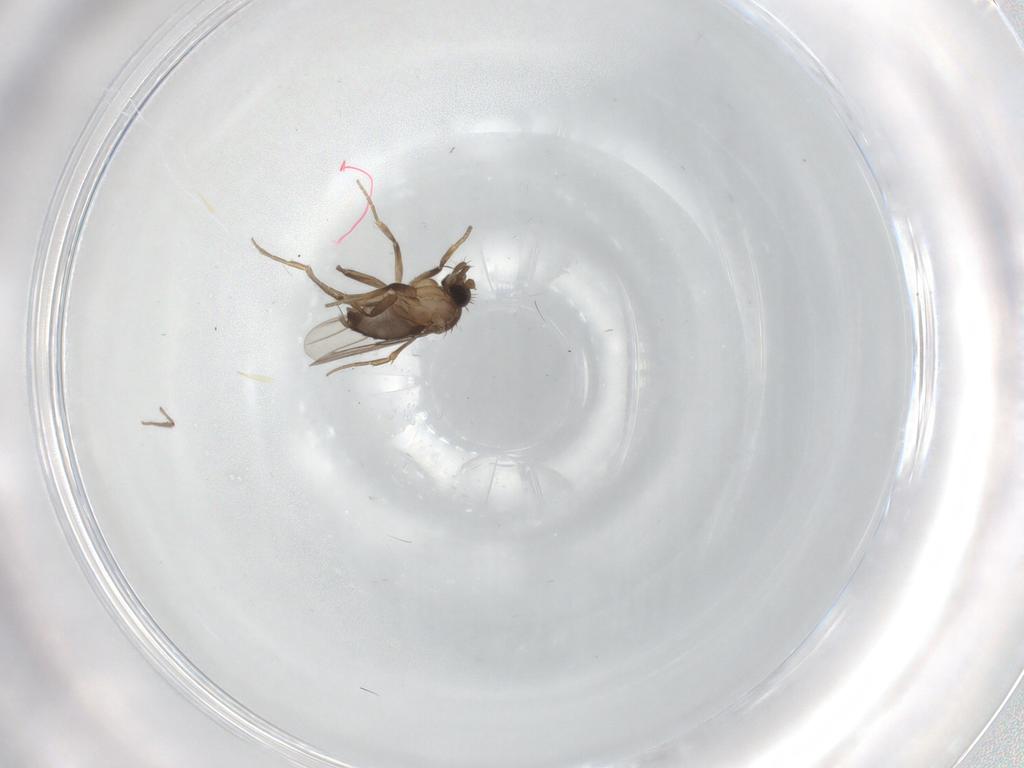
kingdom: Animalia
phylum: Arthropoda
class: Insecta
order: Diptera
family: Phoridae
